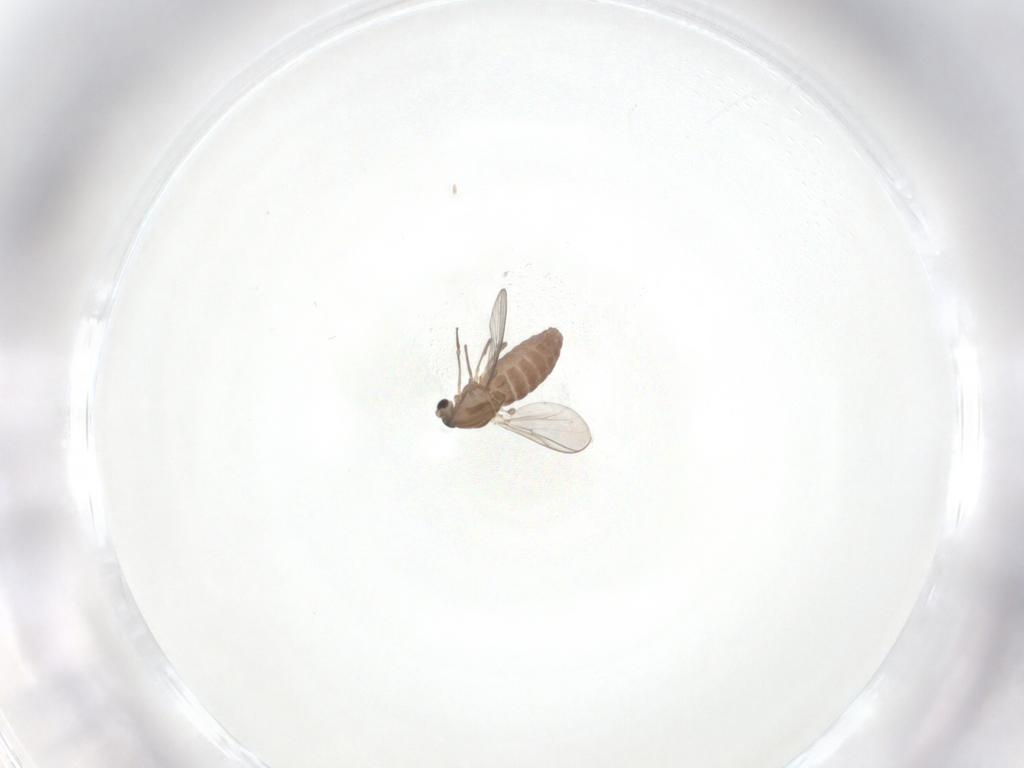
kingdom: Animalia
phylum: Arthropoda
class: Insecta
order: Diptera
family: Chironomidae
